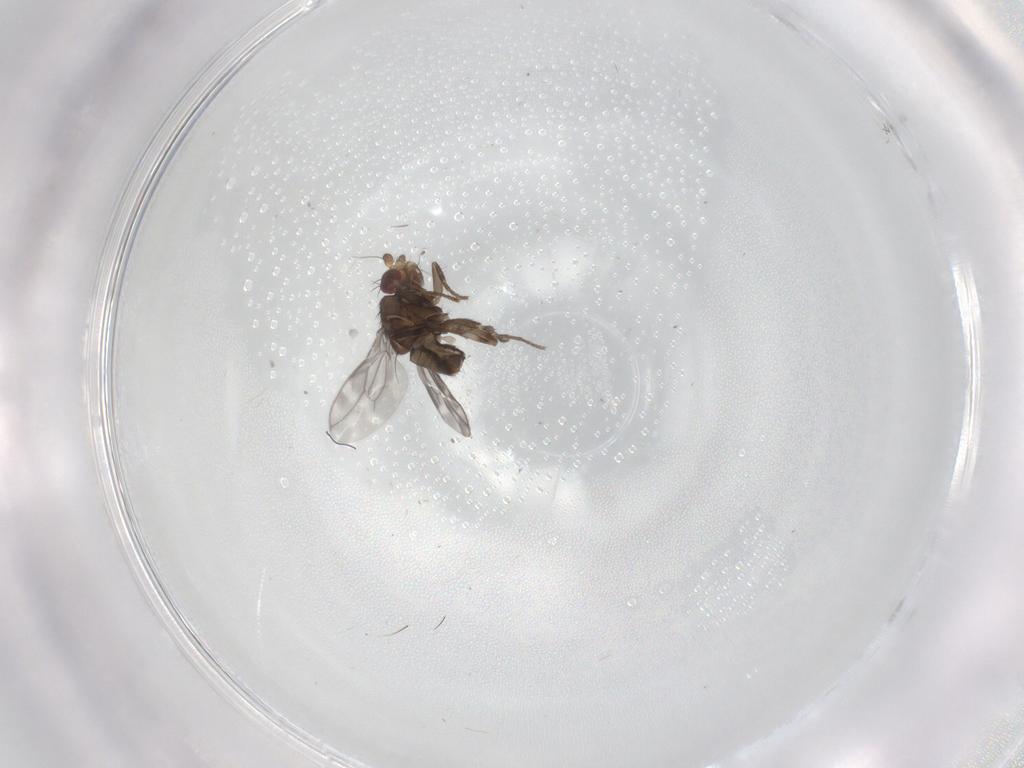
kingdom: Animalia
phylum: Arthropoda
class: Insecta
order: Diptera
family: Sphaeroceridae
